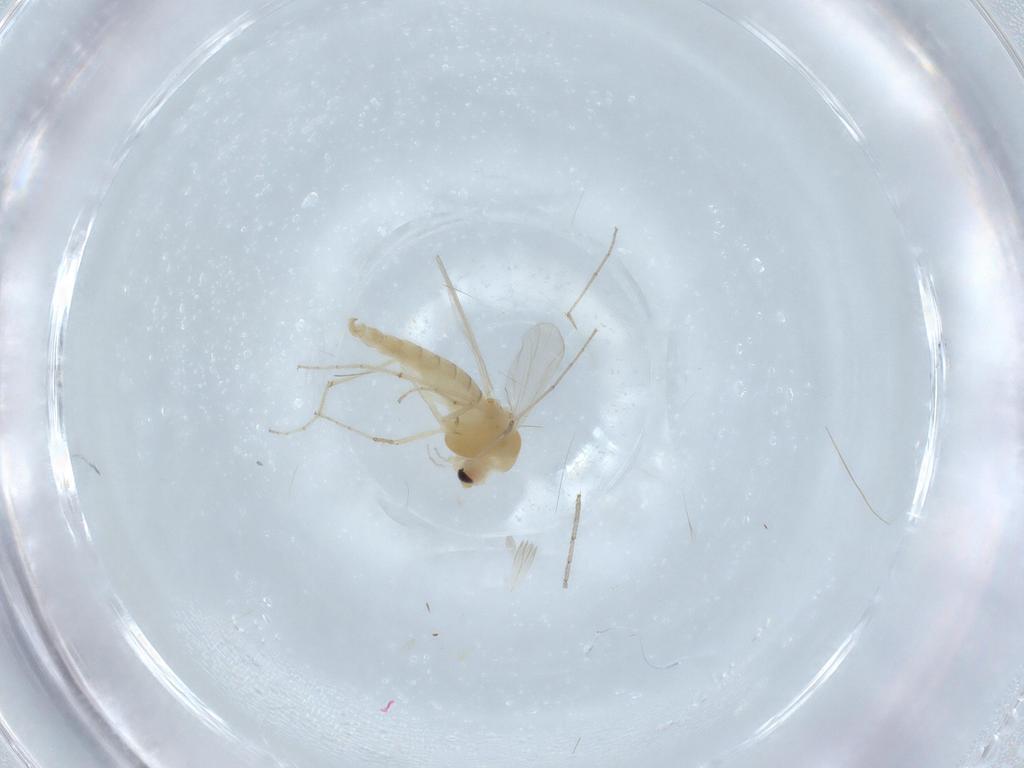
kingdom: Animalia
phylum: Arthropoda
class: Insecta
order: Diptera
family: Chironomidae
